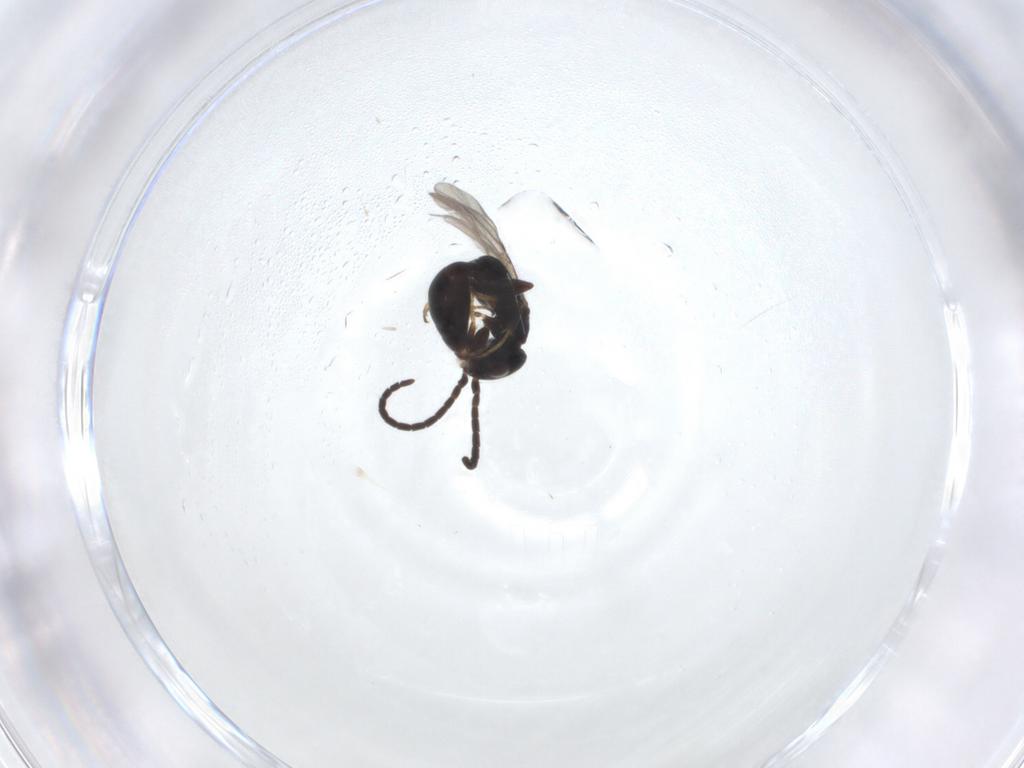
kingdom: Animalia
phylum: Arthropoda
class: Insecta
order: Hymenoptera
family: Bethylidae
